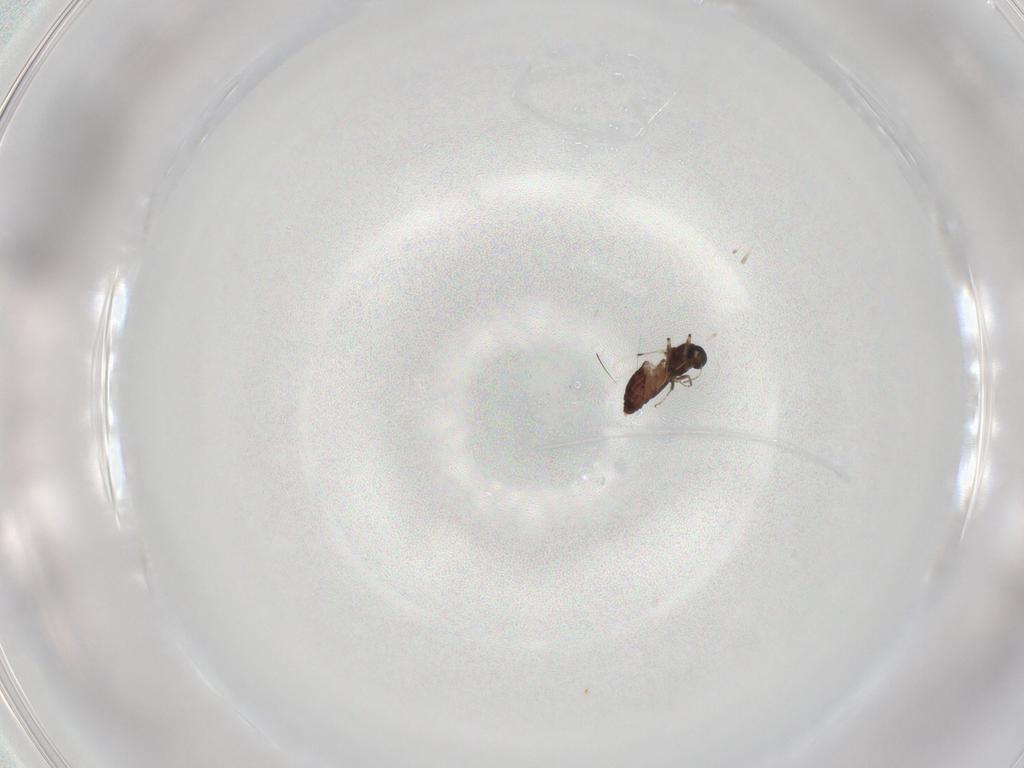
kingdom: Animalia
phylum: Arthropoda
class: Insecta
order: Diptera
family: Ceratopogonidae
